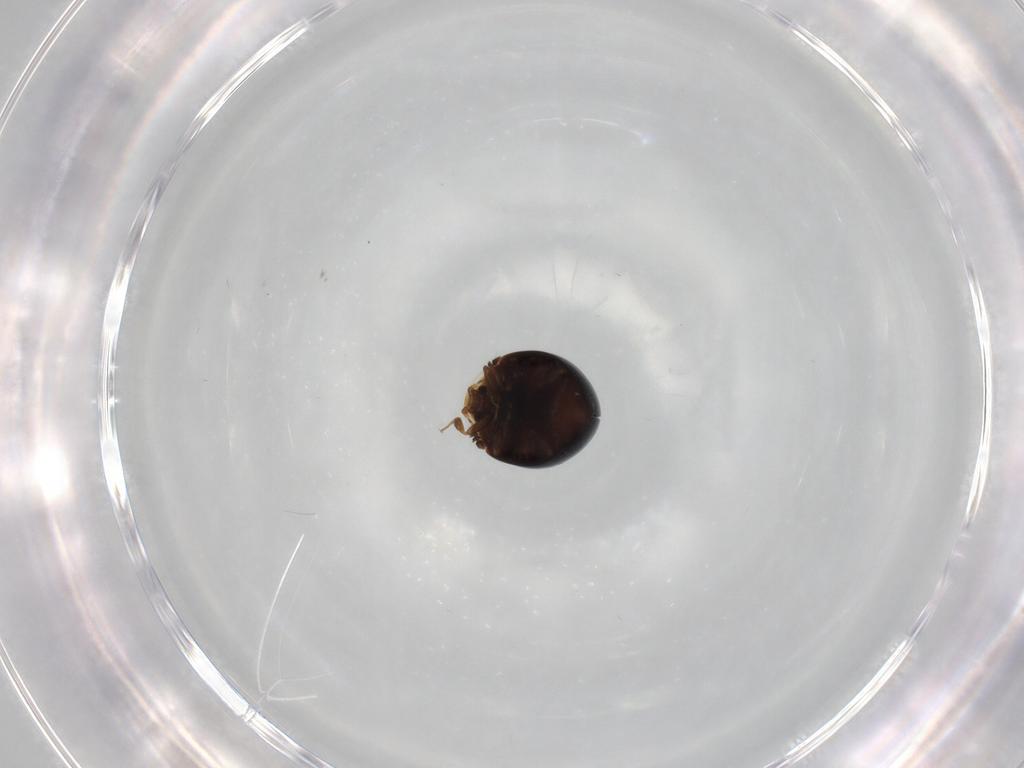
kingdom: Animalia
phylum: Arthropoda
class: Insecta
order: Coleoptera
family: Corylophidae
